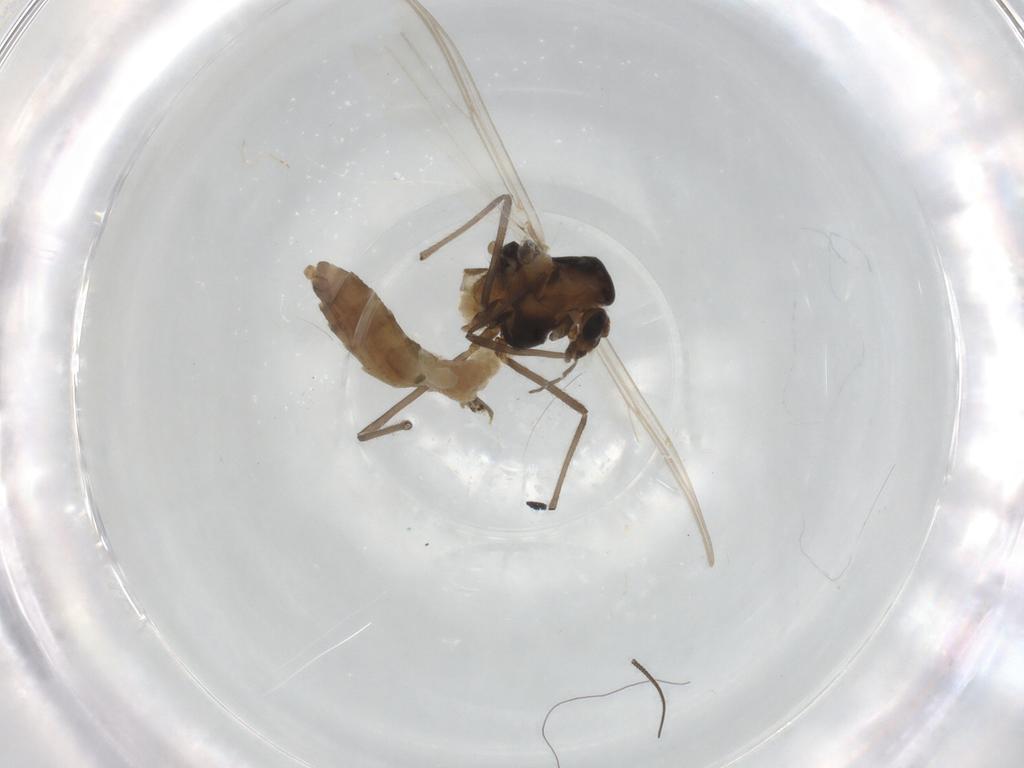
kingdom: Animalia
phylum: Arthropoda
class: Insecta
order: Diptera
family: Chironomidae
